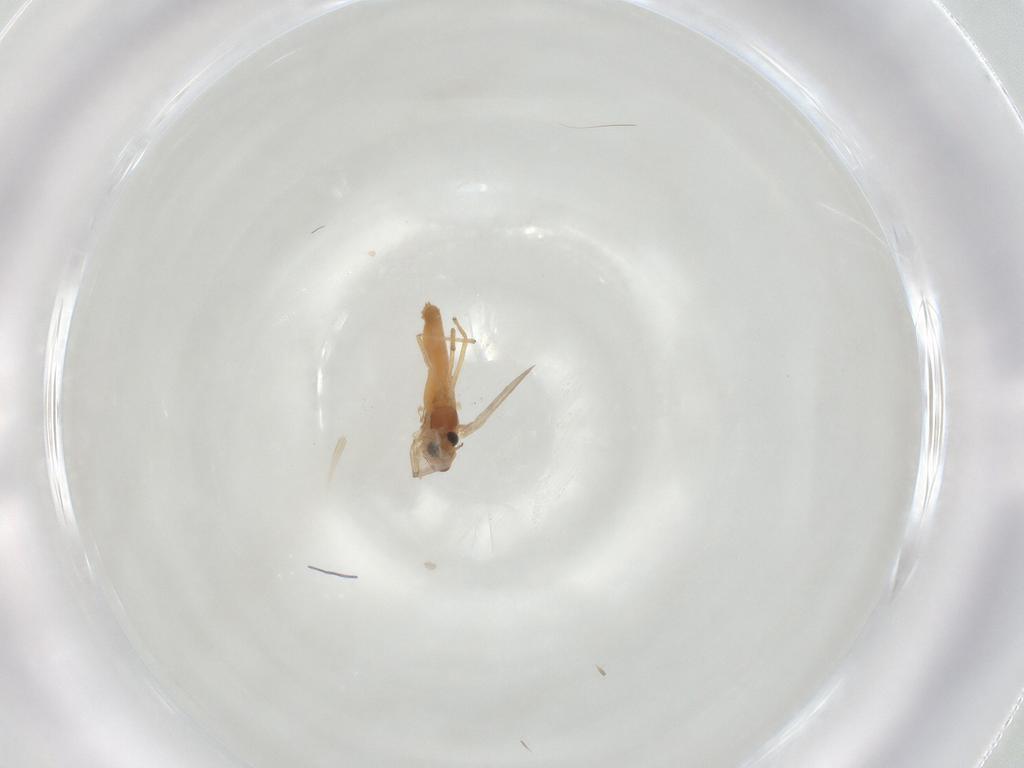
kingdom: Animalia
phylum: Arthropoda
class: Insecta
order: Diptera
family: Chironomidae
